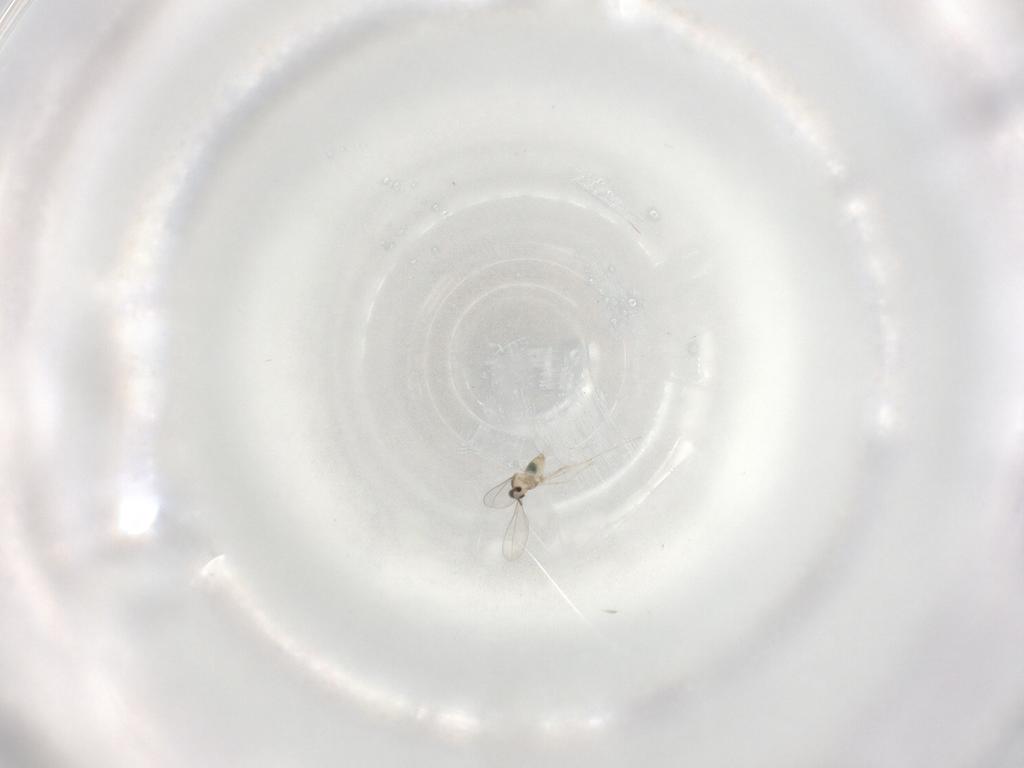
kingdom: Animalia
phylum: Arthropoda
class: Insecta
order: Diptera
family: Cecidomyiidae
